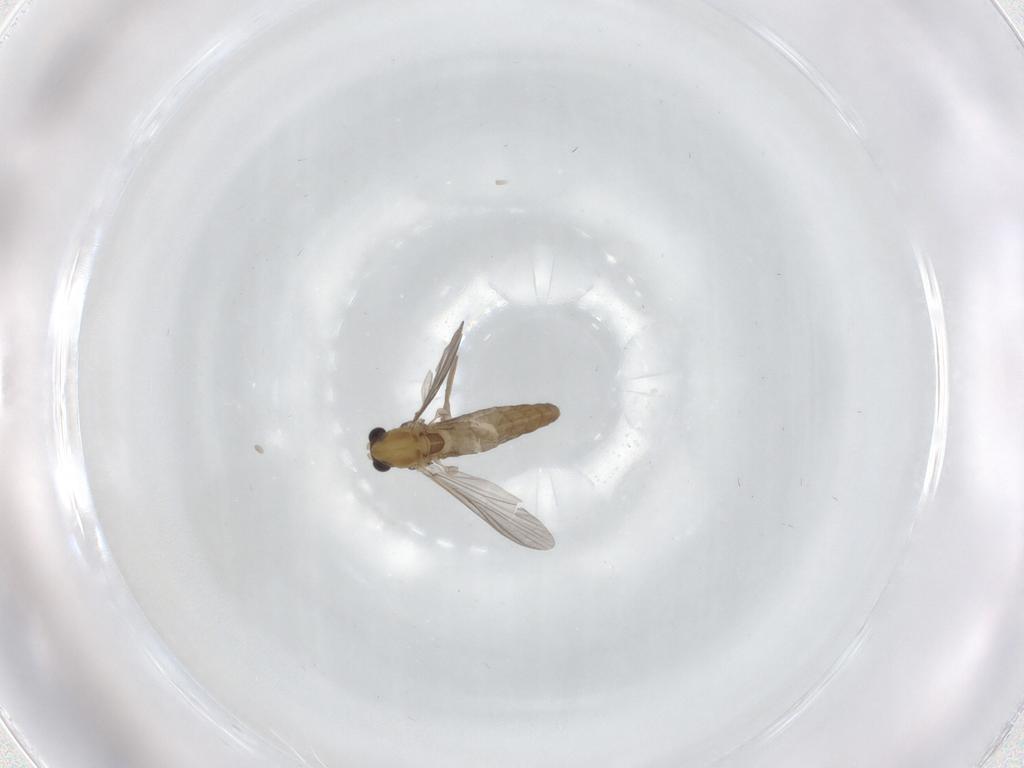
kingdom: Animalia
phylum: Arthropoda
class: Insecta
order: Diptera
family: Chironomidae
